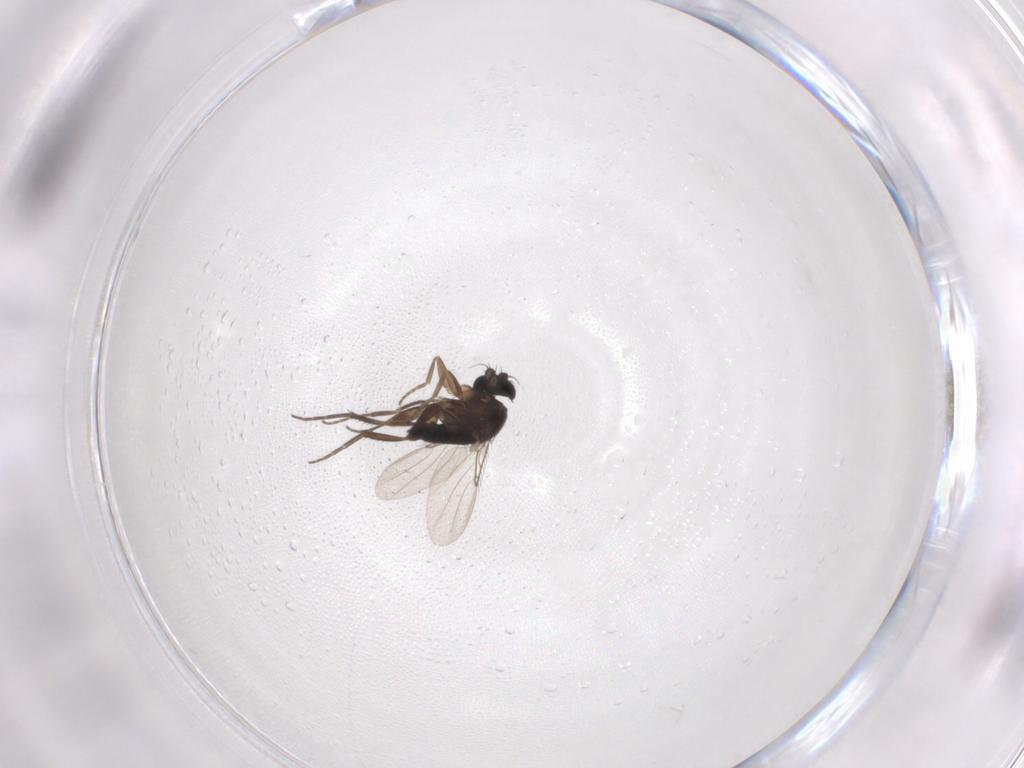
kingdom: Animalia
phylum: Arthropoda
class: Insecta
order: Diptera
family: Phoridae
